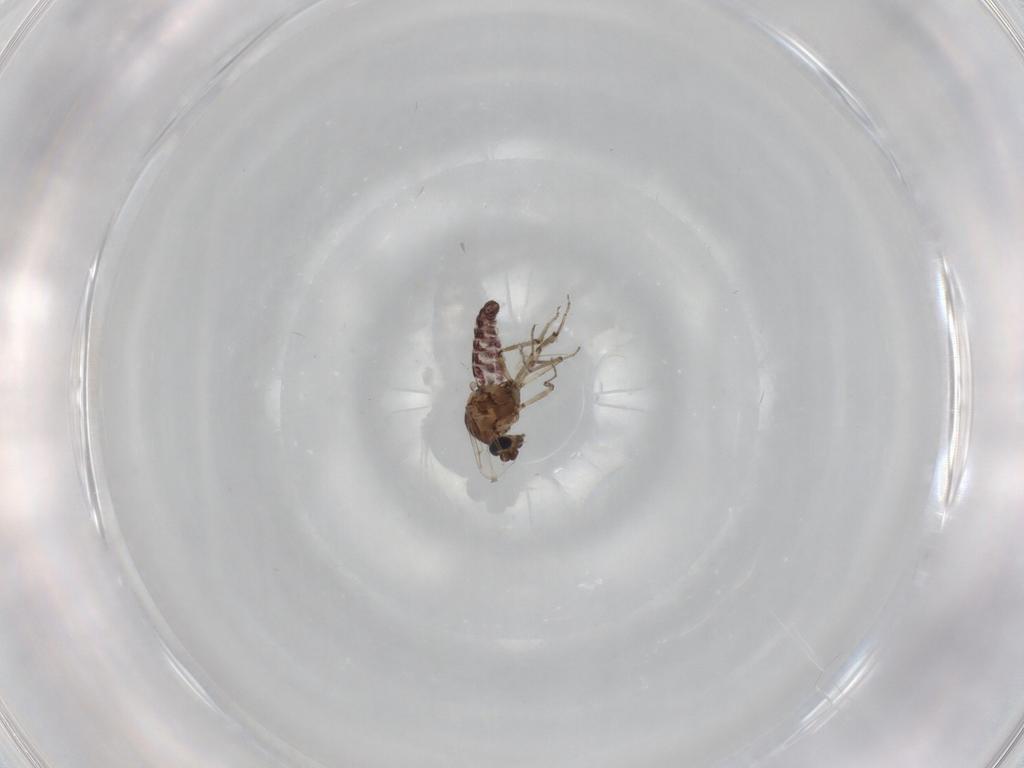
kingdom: Animalia
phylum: Arthropoda
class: Insecta
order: Diptera
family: Ceratopogonidae
